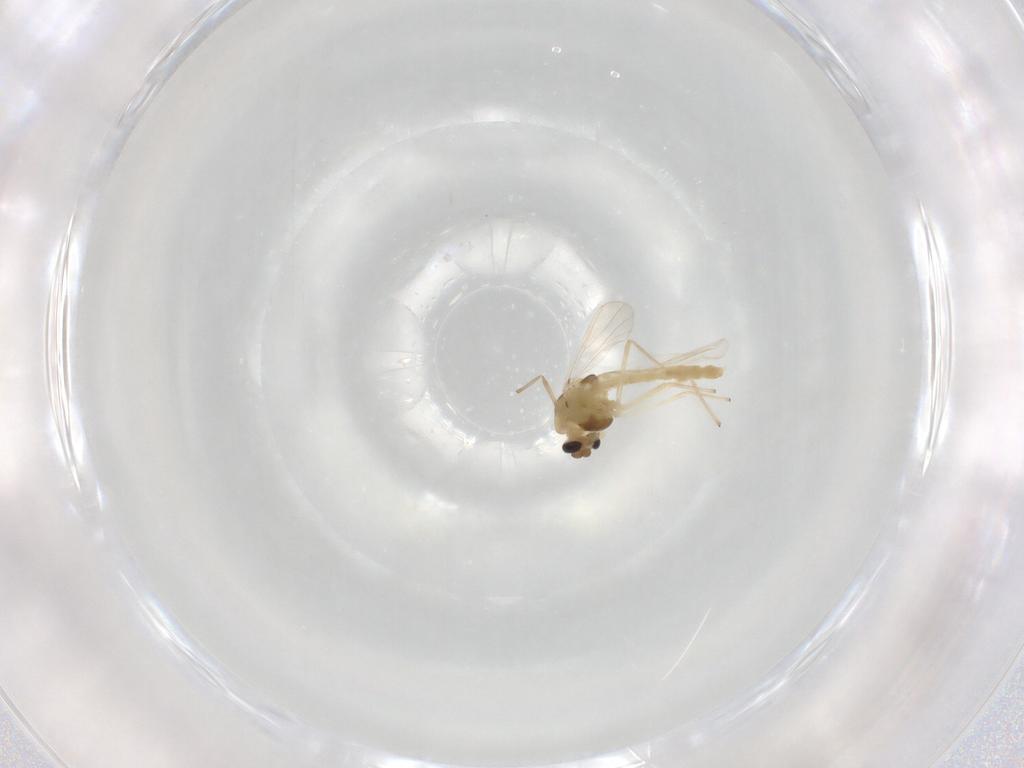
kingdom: Animalia
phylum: Arthropoda
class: Insecta
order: Diptera
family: Chironomidae
